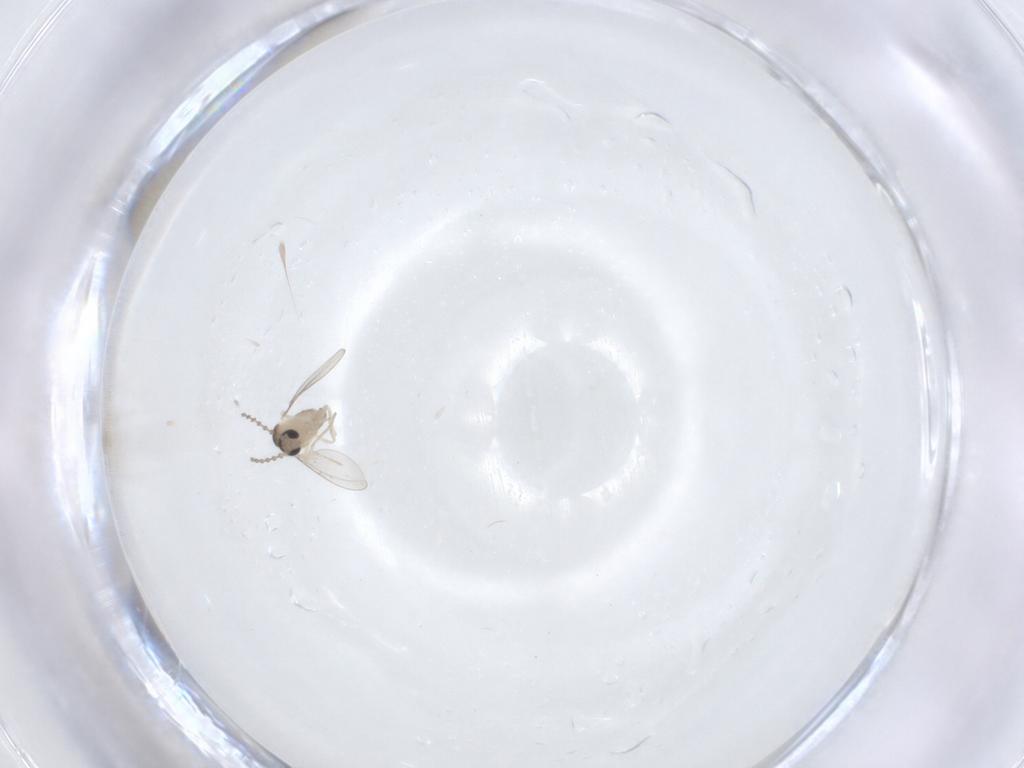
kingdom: Animalia
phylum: Arthropoda
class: Insecta
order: Diptera
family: Cecidomyiidae
